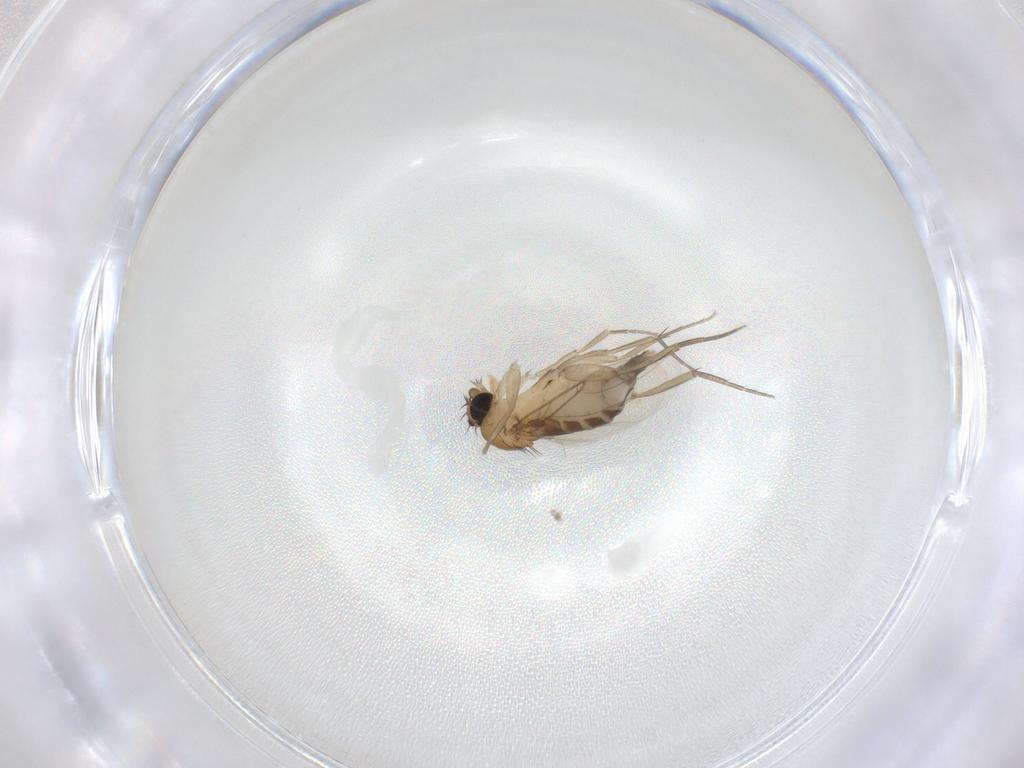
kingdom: Animalia
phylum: Arthropoda
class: Insecta
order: Diptera
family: Phoridae
